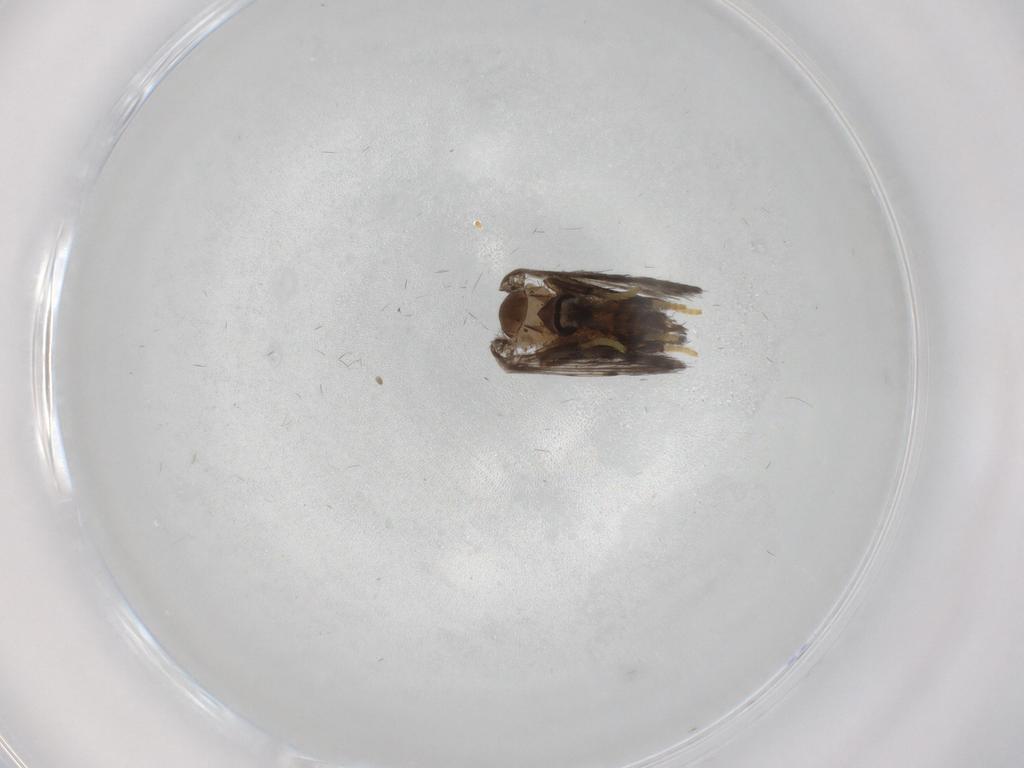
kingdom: Animalia
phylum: Arthropoda
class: Insecta
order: Diptera
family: Psychodidae
